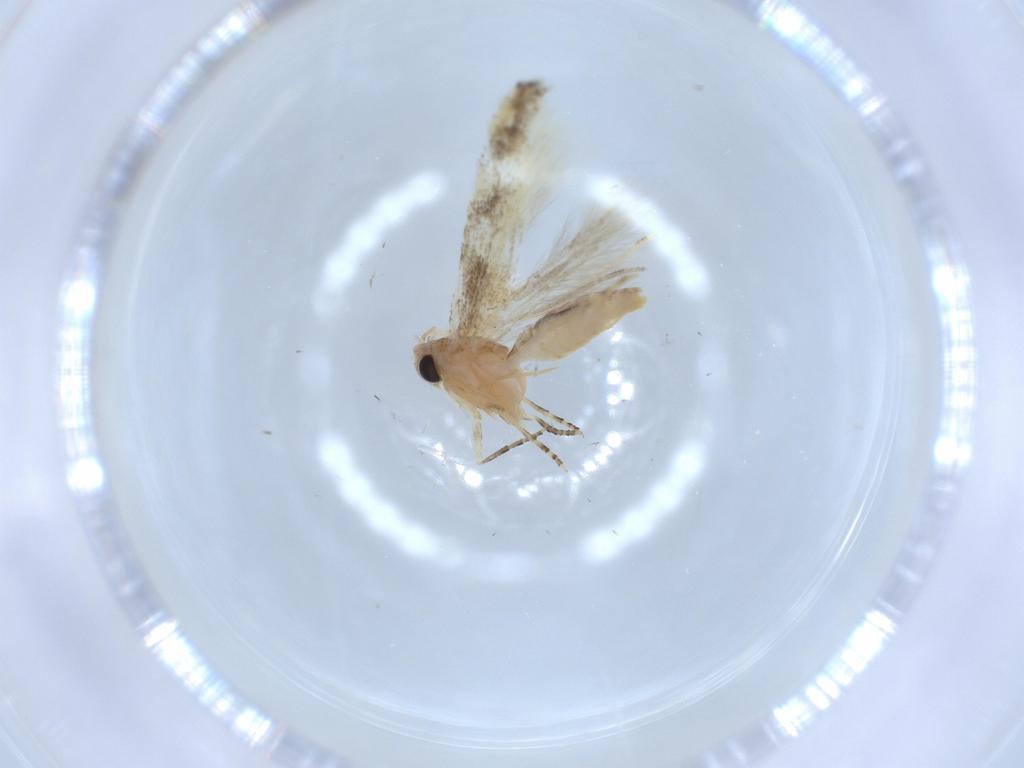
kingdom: Animalia
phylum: Arthropoda
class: Insecta
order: Lepidoptera
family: Bucculatricidae
